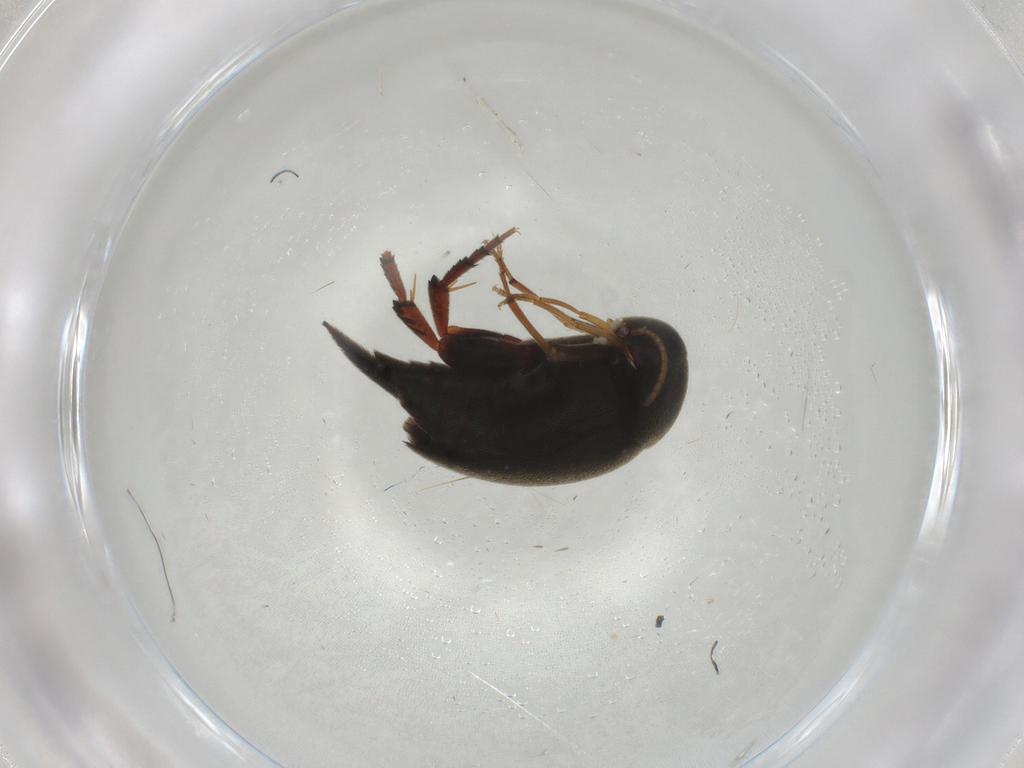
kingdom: Animalia
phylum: Arthropoda
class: Insecta
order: Coleoptera
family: Mordellidae
